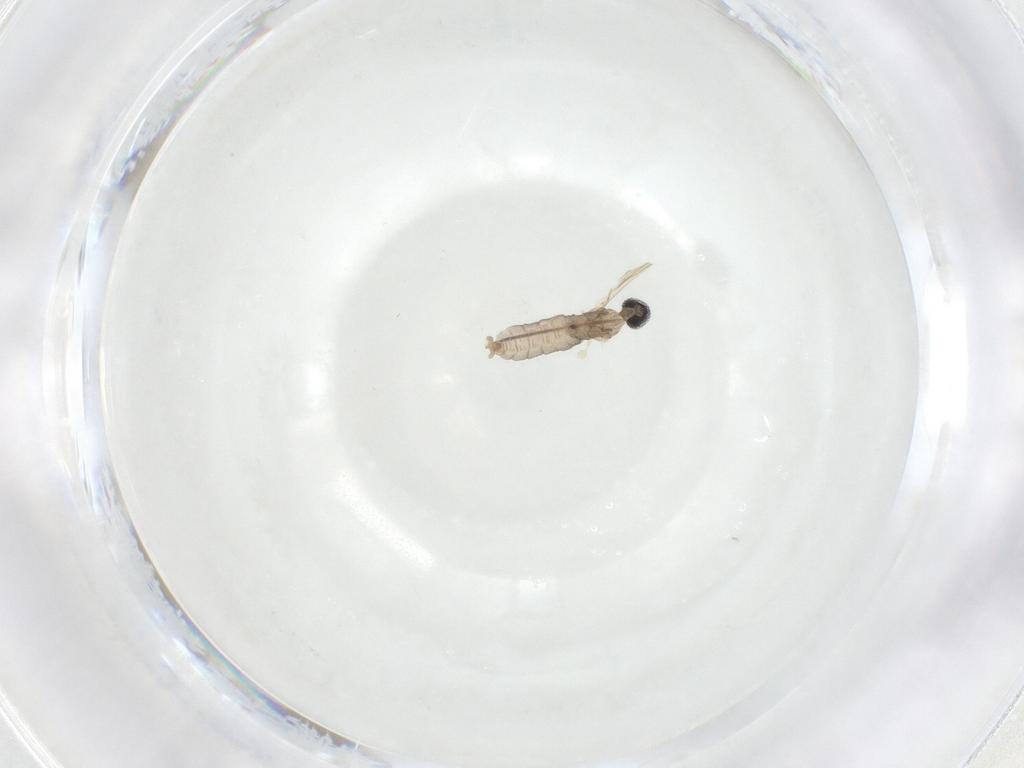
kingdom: Animalia
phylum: Arthropoda
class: Insecta
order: Diptera
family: Cecidomyiidae
